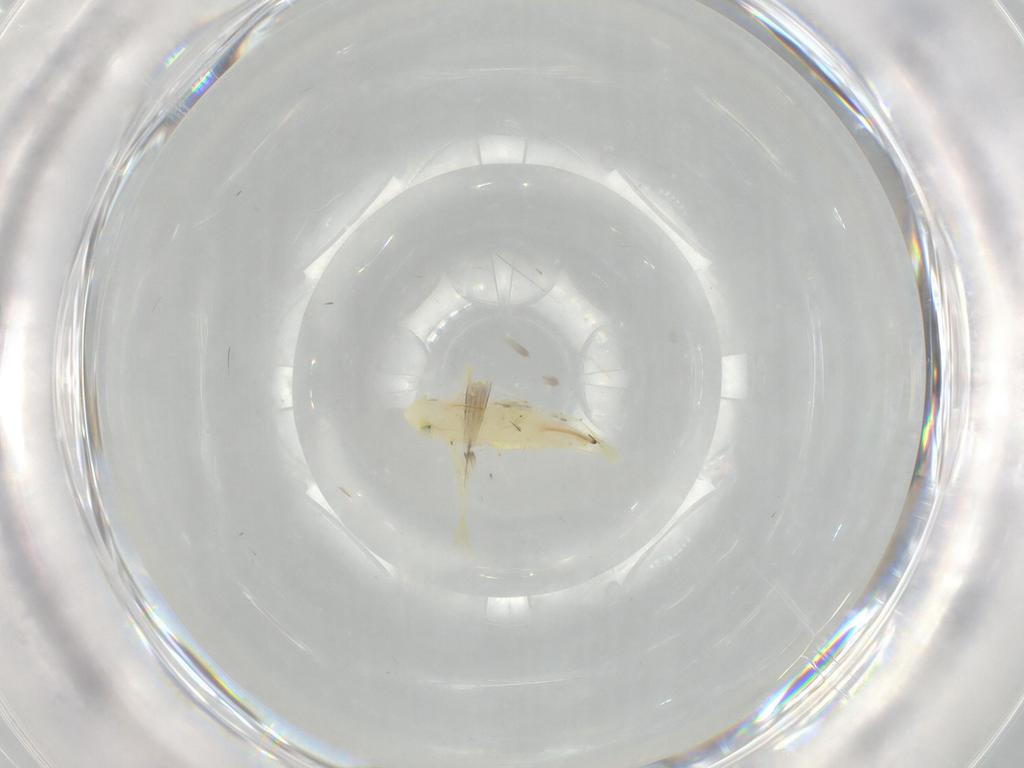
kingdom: Animalia
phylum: Arthropoda
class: Insecta
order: Hemiptera
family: Cicadellidae
